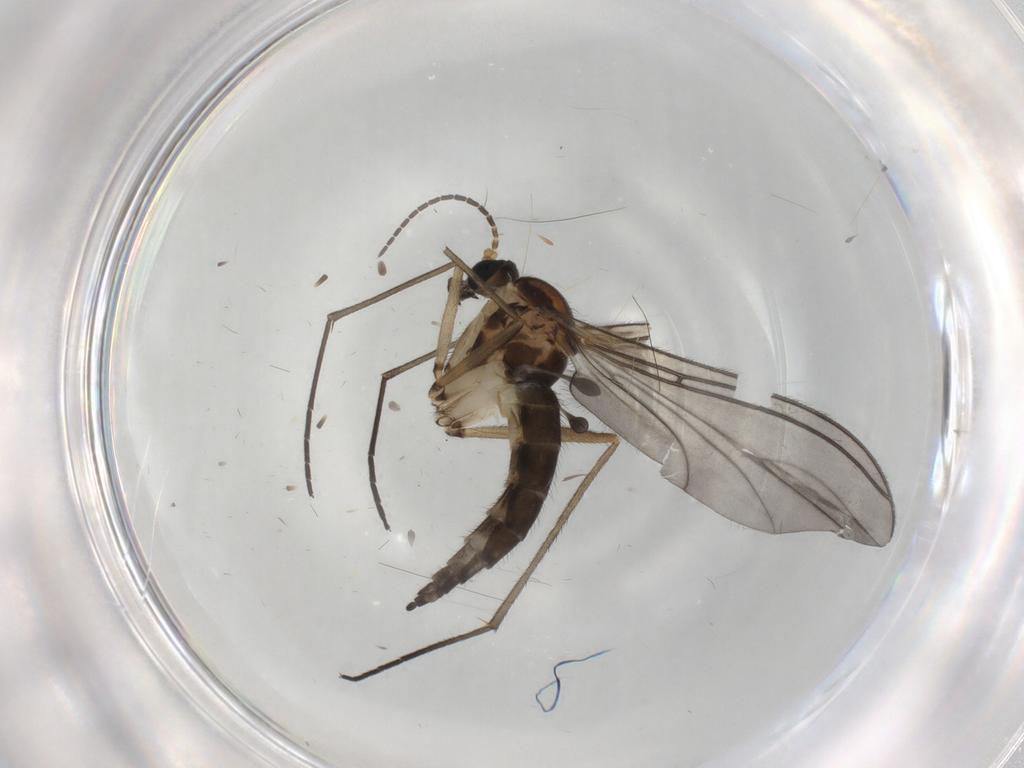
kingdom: Animalia
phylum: Arthropoda
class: Insecta
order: Diptera
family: Sciaridae
